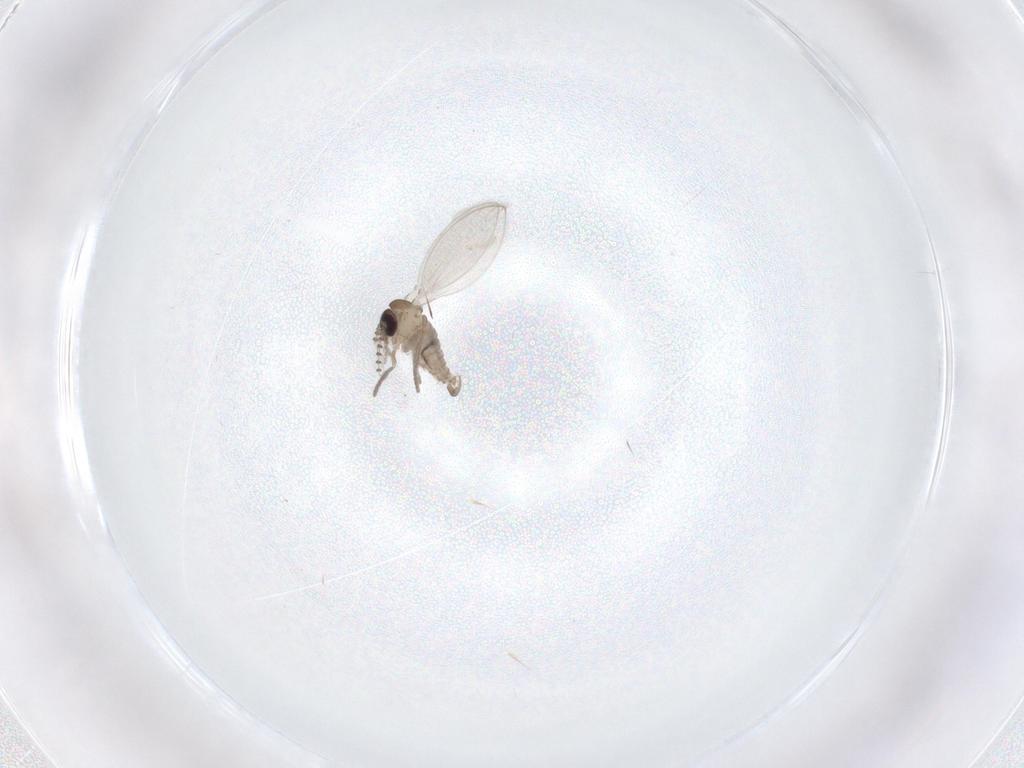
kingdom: Animalia
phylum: Arthropoda
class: Insecta
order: Diptera
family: Psychodidae
